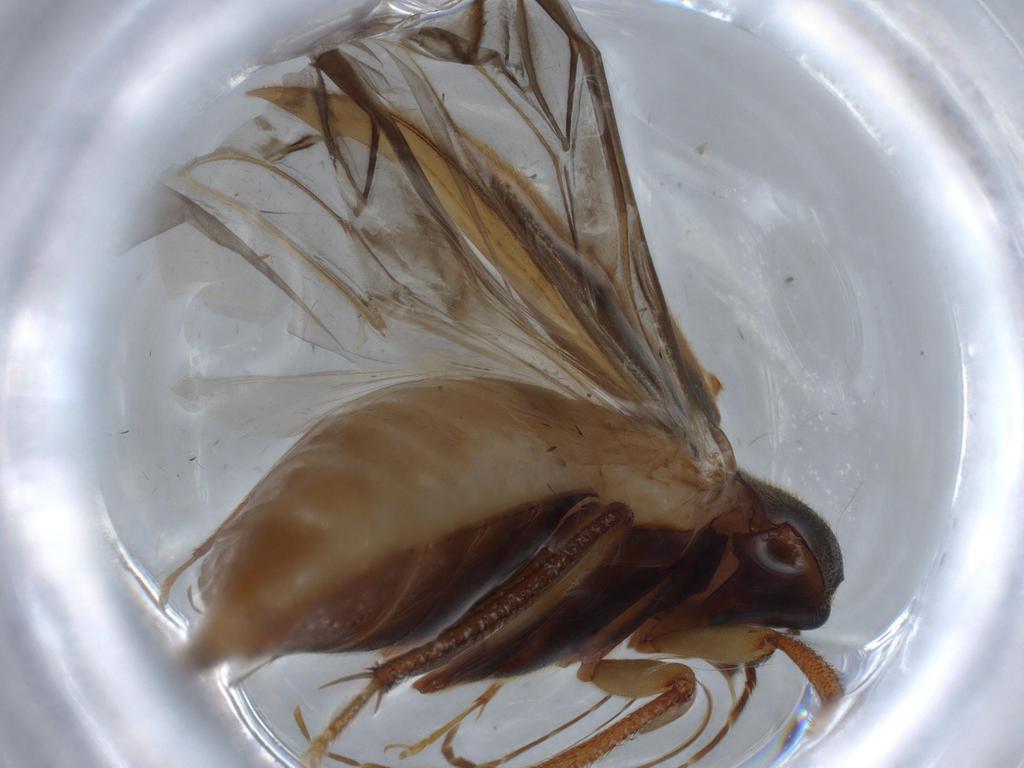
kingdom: Animalia
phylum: Arthropoda
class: Insecta
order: Coleoptera
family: Ptilodactylidae
